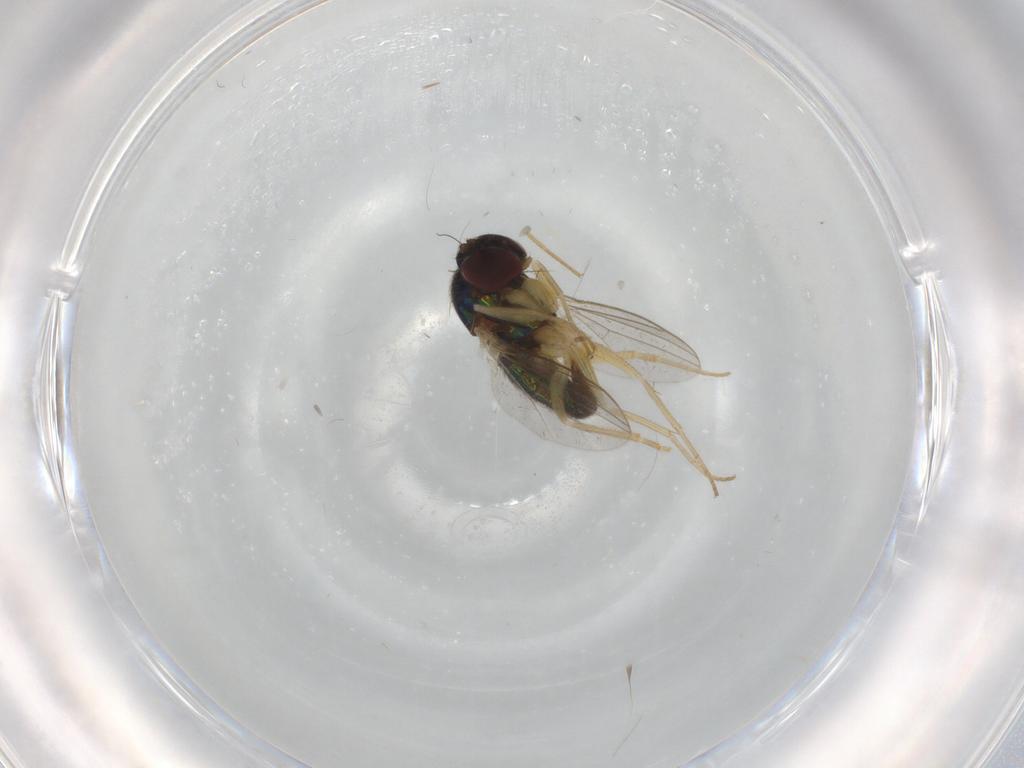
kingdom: Animalia
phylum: Arthropoda
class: Insecta
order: Diptera
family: Dolichopodidae
